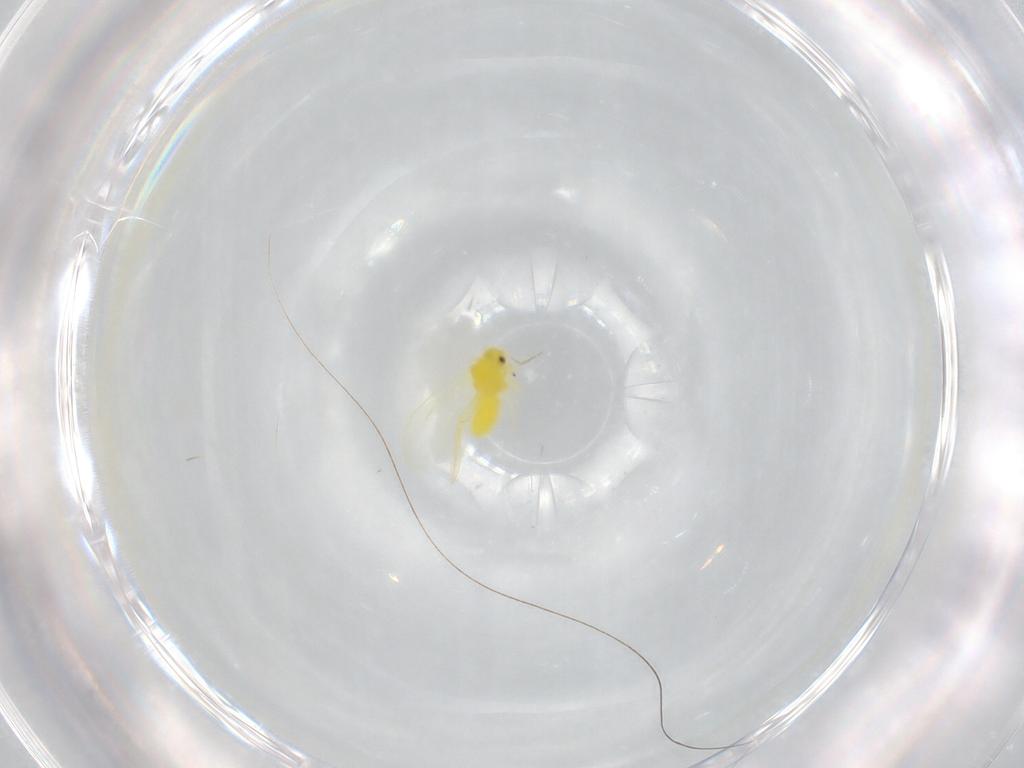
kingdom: Animalia
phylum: Arthropoda
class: Insecta
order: Hemiptera
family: Aleyrodidae
